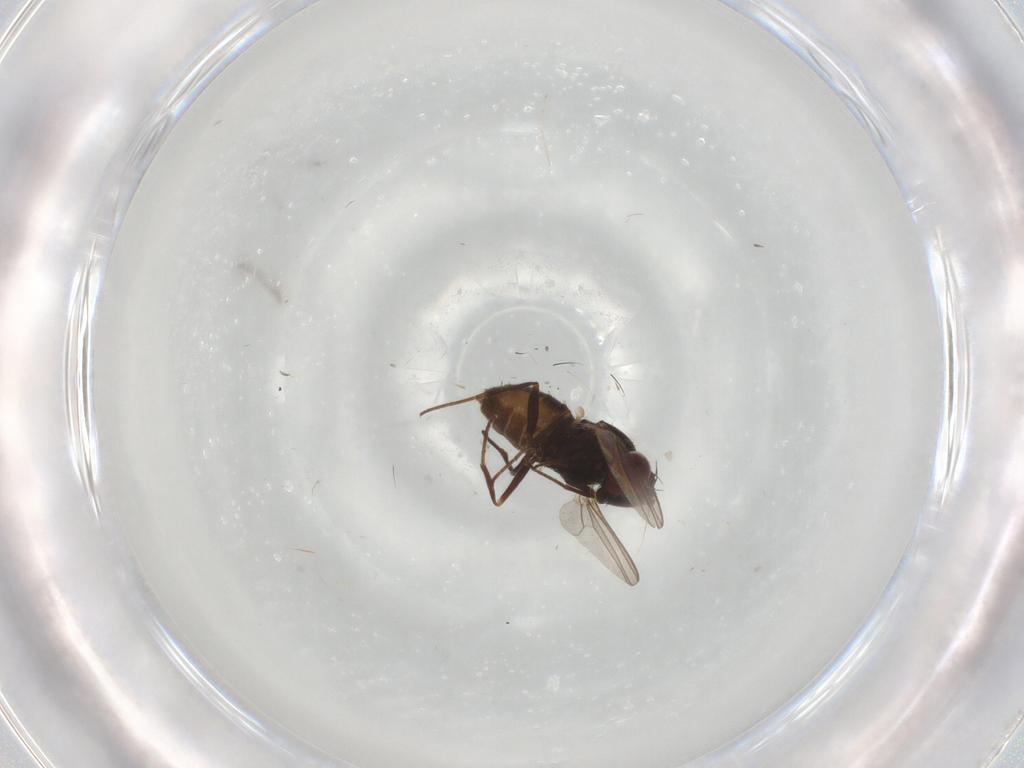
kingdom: Animalia
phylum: Arthropoda
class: Insecta
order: Diptera
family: Dolichopodidae
